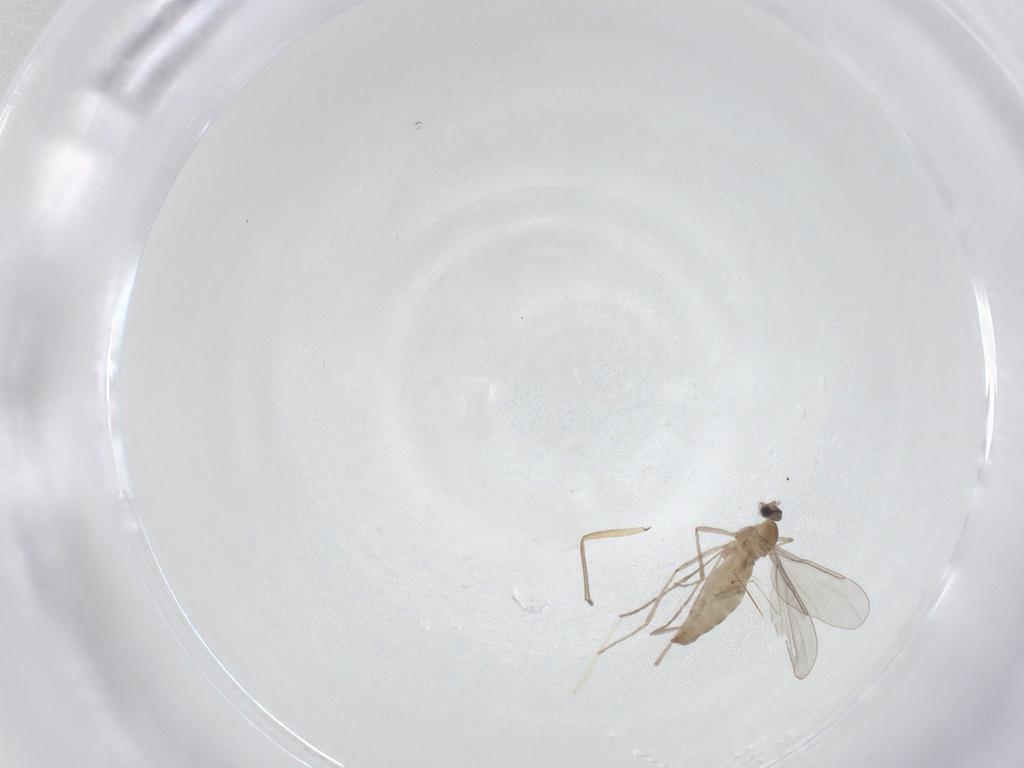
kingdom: Animalia
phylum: Arthropoda
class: Insecta
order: Diptera
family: Sciaridae
